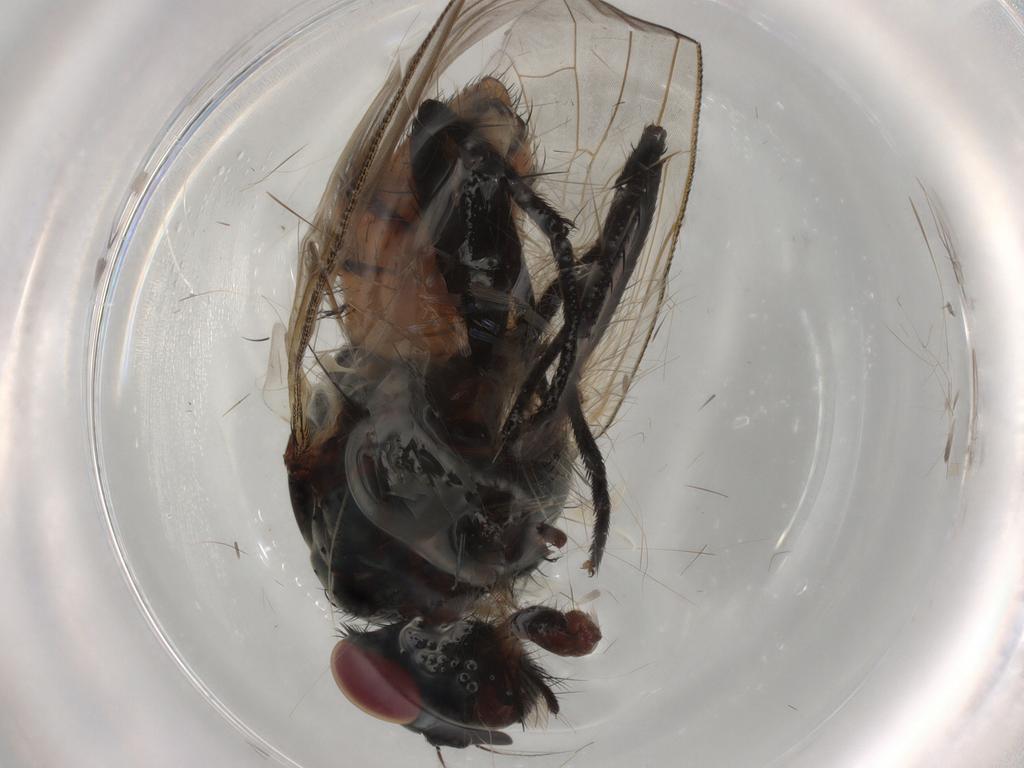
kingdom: Animalia
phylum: Arthropoda
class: Insecta
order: Diptera
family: Anthomyiidae
